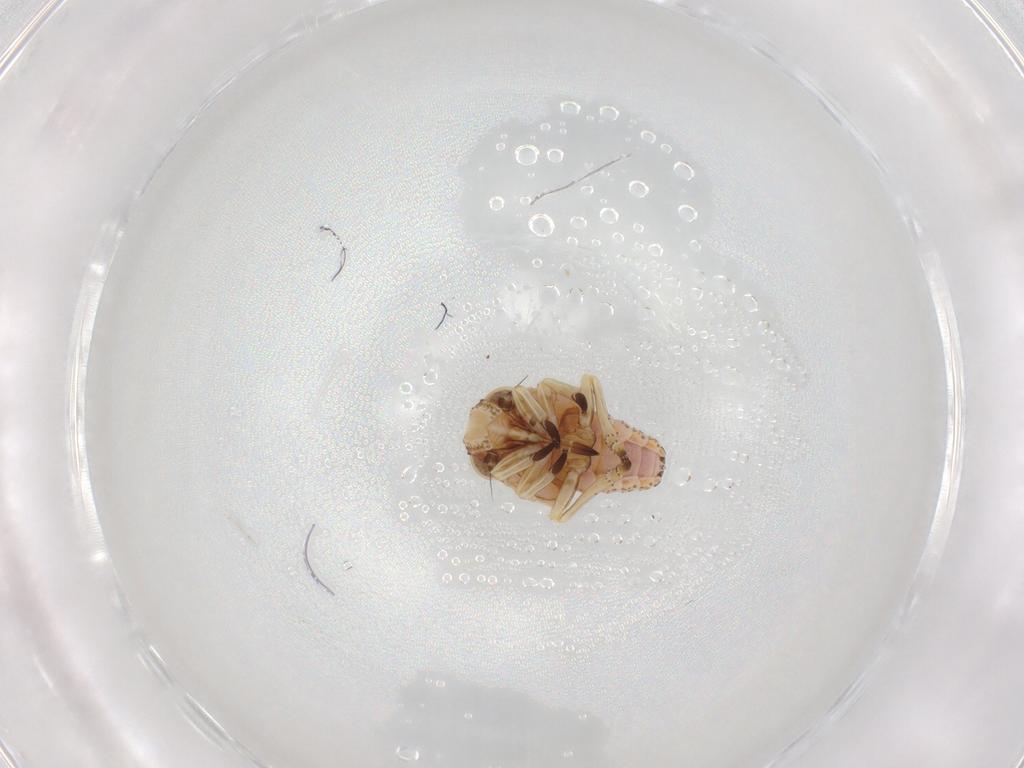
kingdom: Animalia
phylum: Arthropoda
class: Insecta
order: Hemiptera
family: Tropiduchidae
